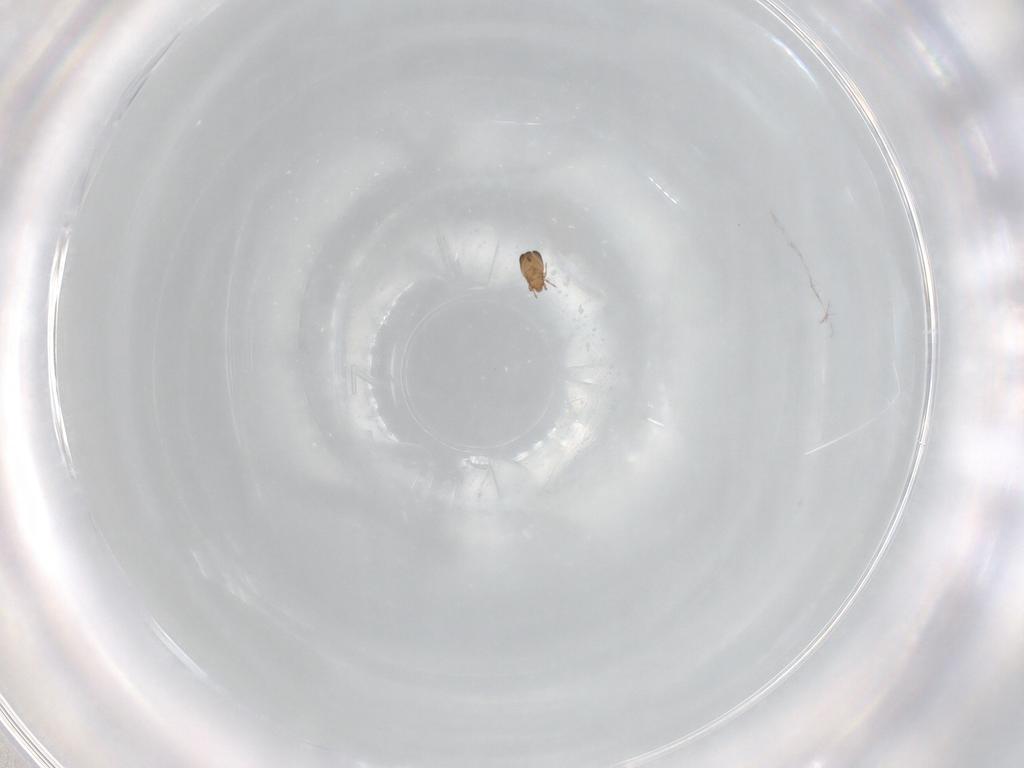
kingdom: Animalia
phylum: Arthropoda
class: Arachnida
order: Sarcoptiformes
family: Micreremidae
